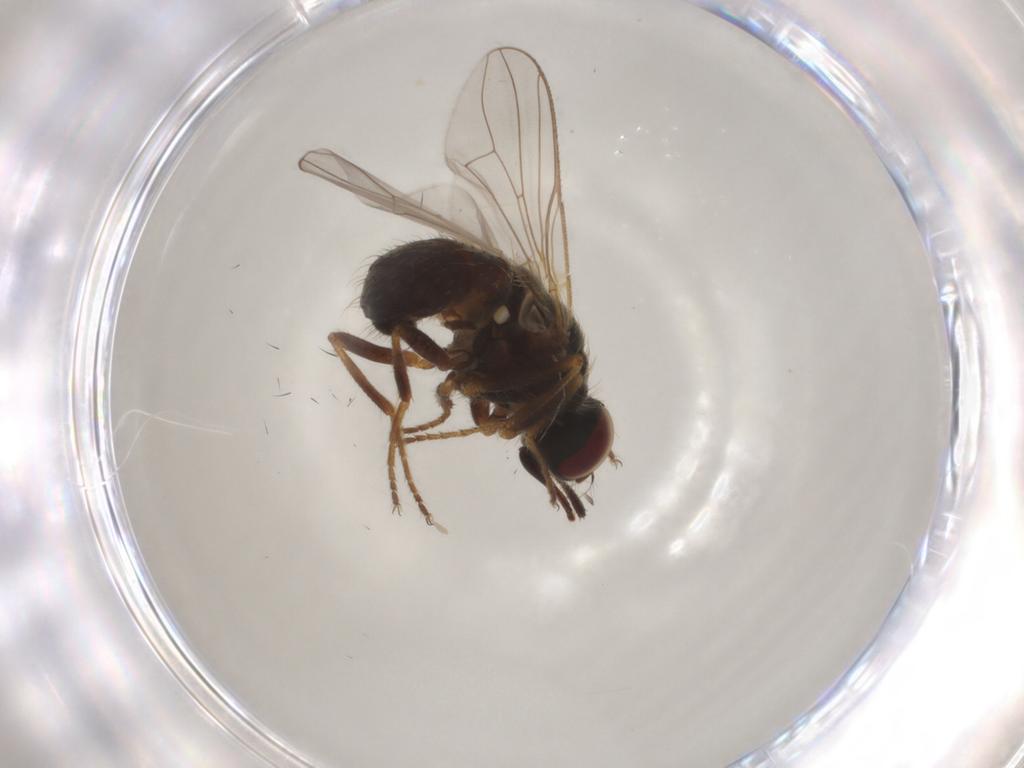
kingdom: Animalia
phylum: Arthropoda
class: Insecta
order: Diptera
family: Muscidae
